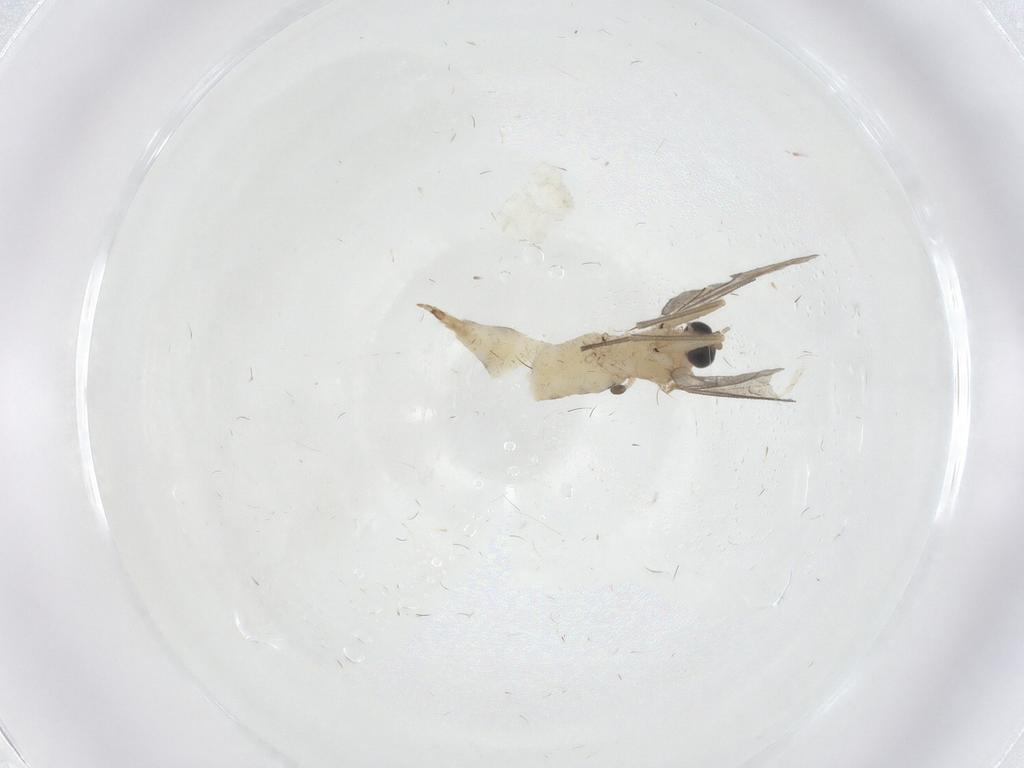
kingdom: Animalia
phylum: Arthropoda
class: Insecta
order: Diptera
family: Sciaridae
